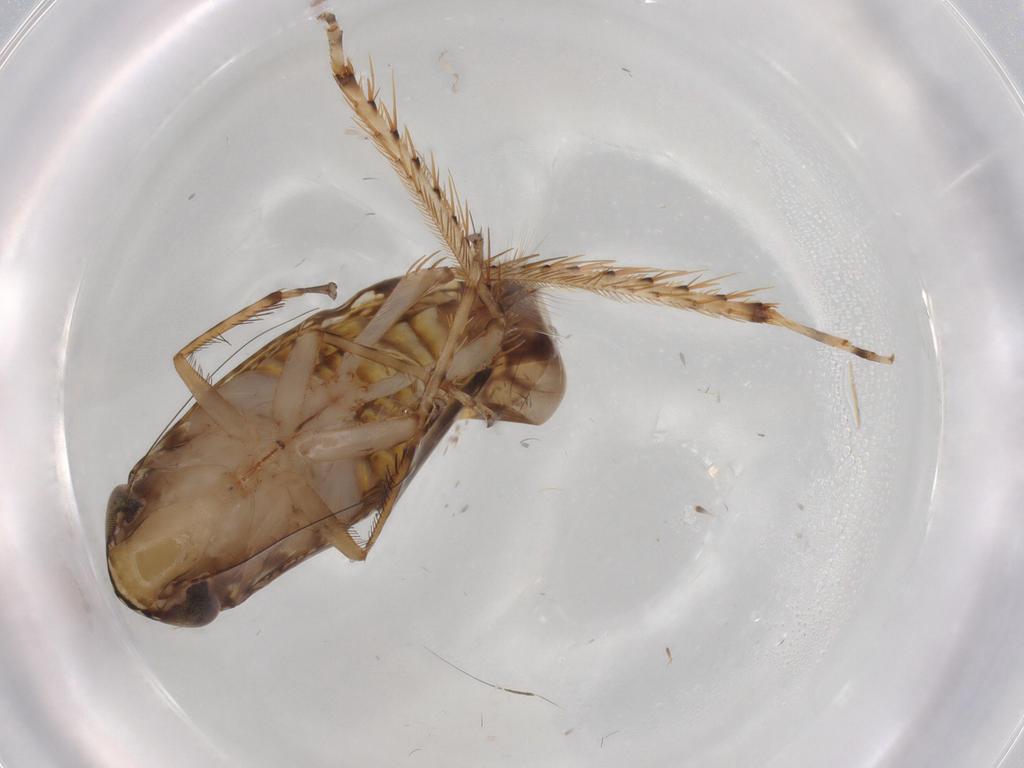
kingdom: Animalia
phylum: Arthropoda
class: Insecta
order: Hemiptera
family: Cicadellidae
